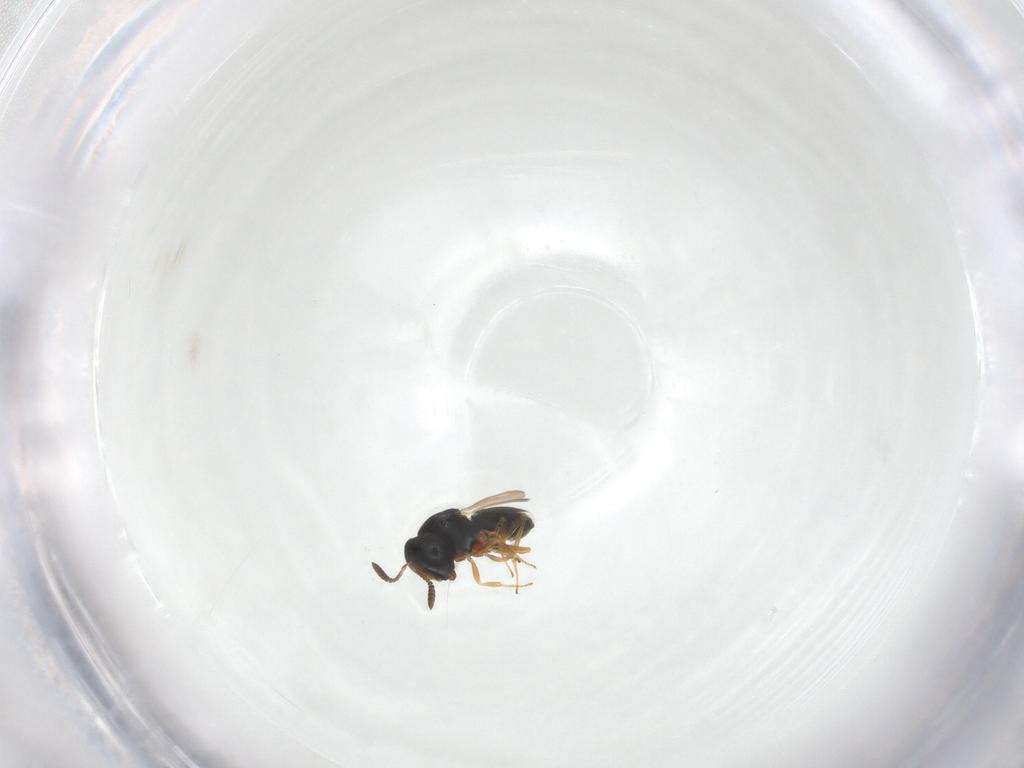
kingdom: Animalia
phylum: Arthropoda
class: Insecta
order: Hymenoptera
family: Scelionidae
